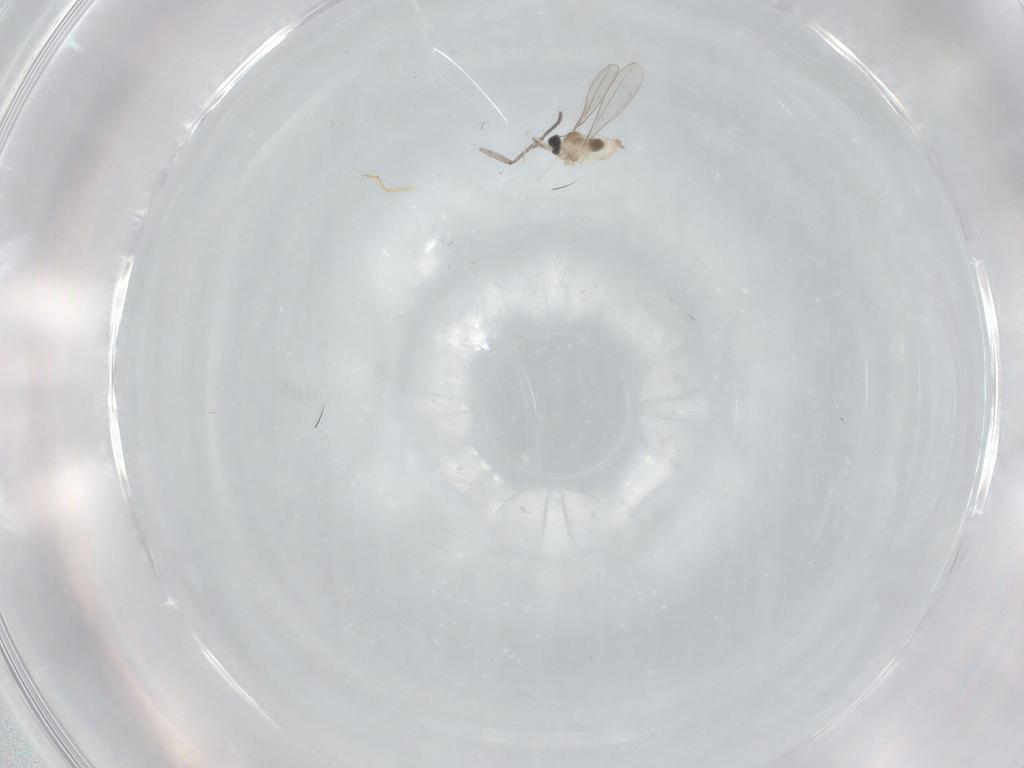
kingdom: Animalia
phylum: Arthropoda
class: Insecta
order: Diptera
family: Cecidomyiidae
